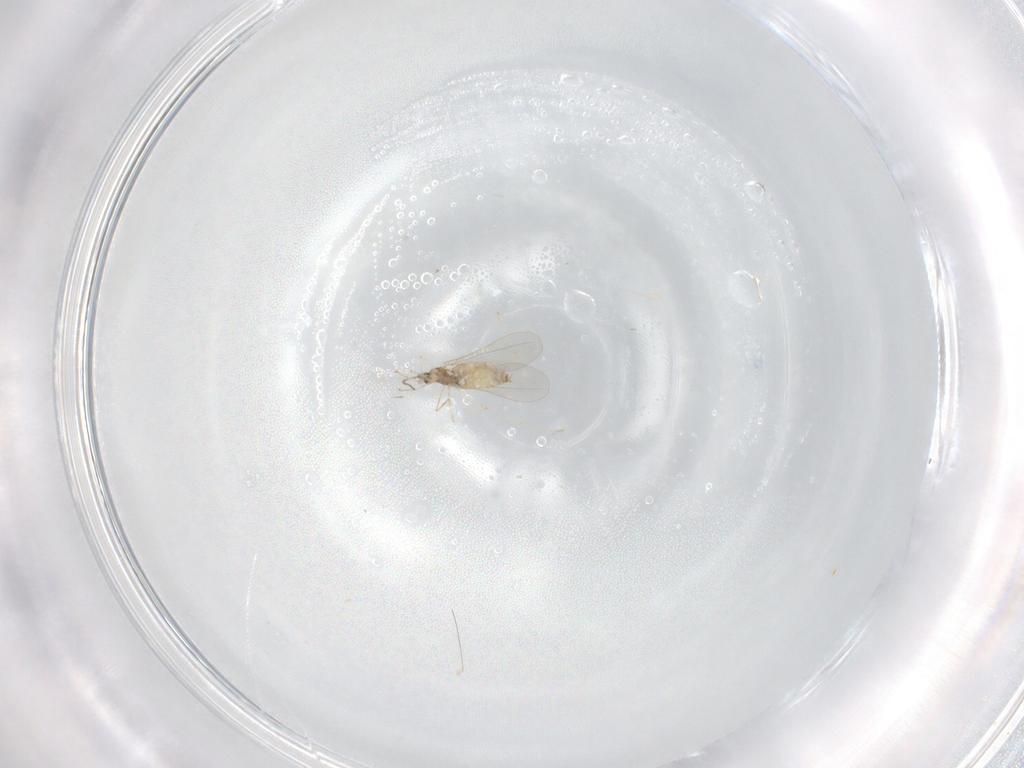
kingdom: Animalia
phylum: Arthropoda
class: Insecta
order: Diptera
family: Cecidomyiidae
